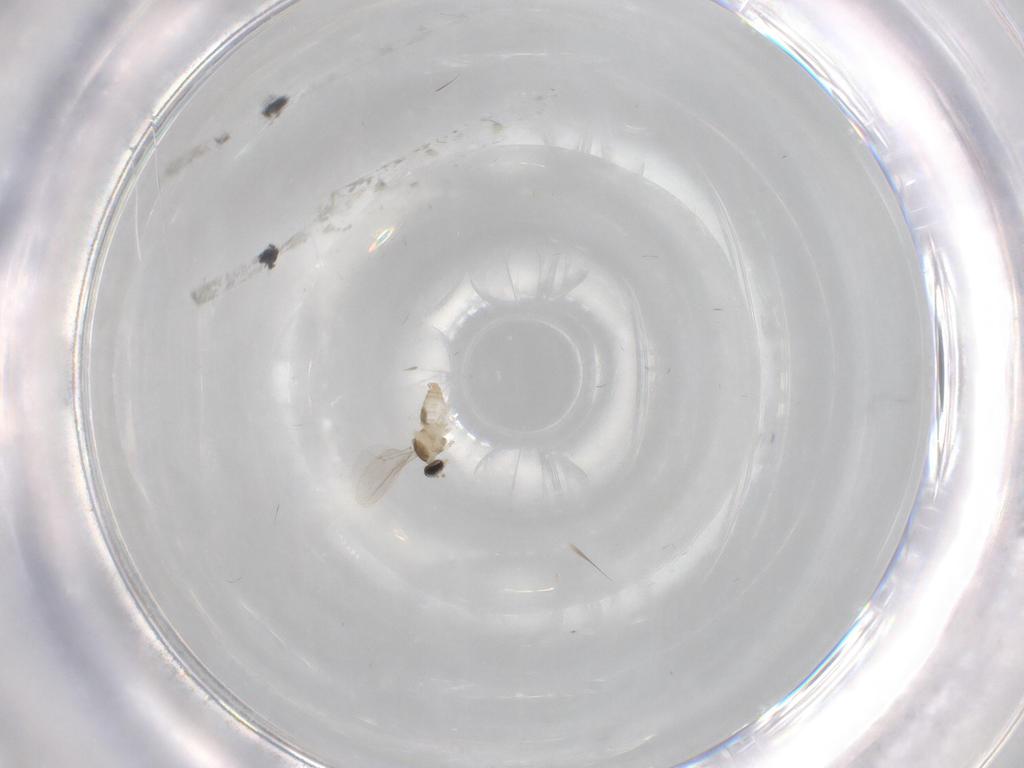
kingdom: Animalia
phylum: Arthropoda
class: Insecta
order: Diptera
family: Cecidomyiidae
